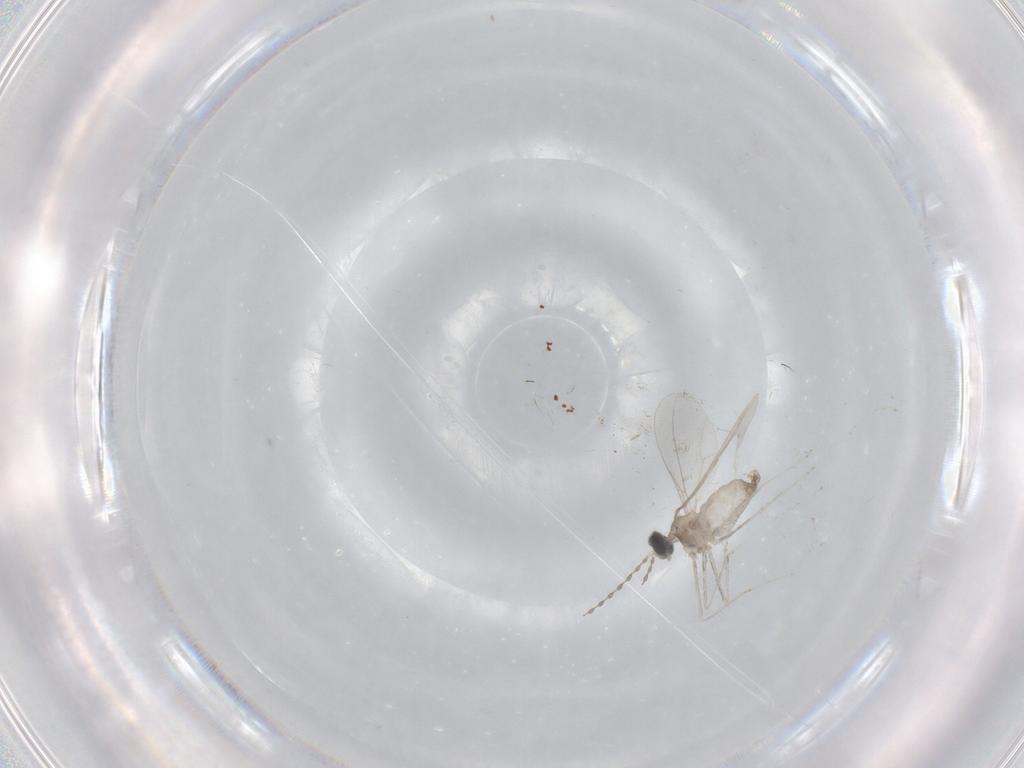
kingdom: Animalia
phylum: Arthropoda
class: Insecta
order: Diptera
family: Cecidomyiidae
